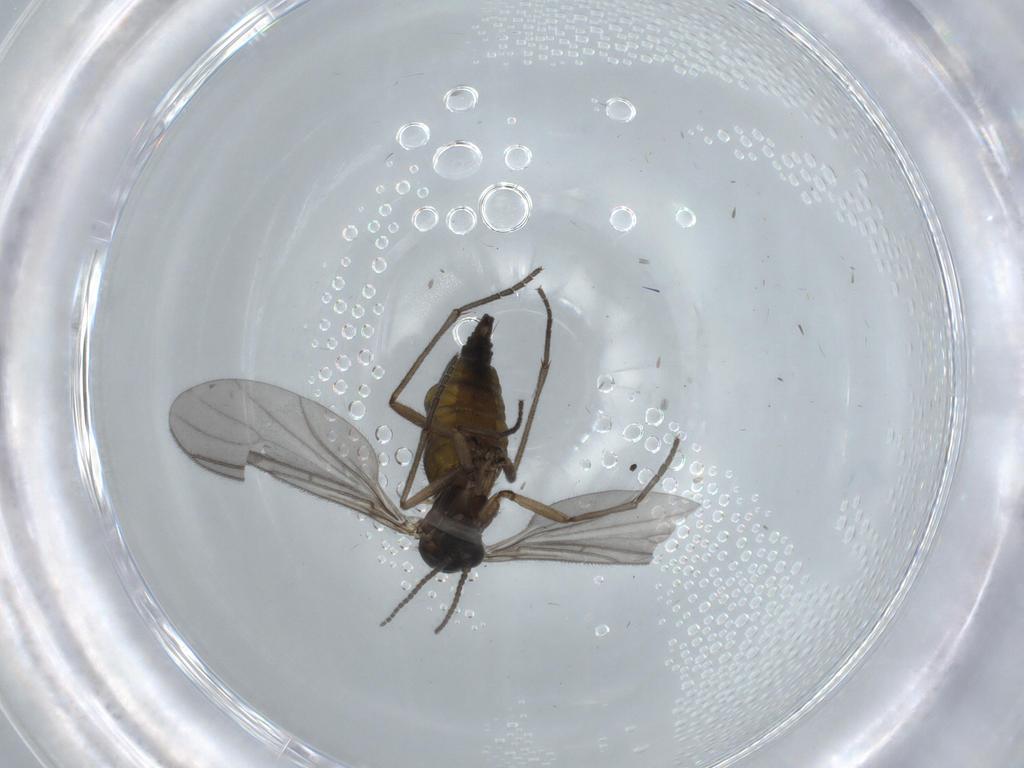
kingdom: Animalia
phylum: Arthropoda
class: Insecta
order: Diptera
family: Sciaridae
